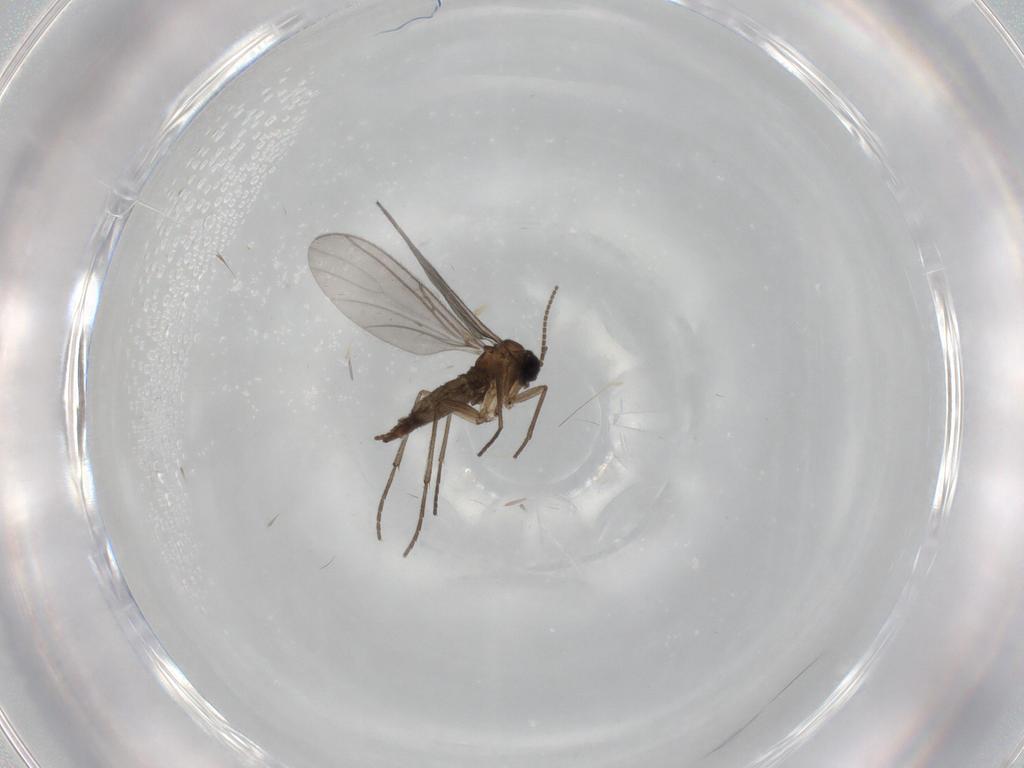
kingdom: Animalia
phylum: Arthropoda
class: Insecta
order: Diptera
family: Sciaridae
